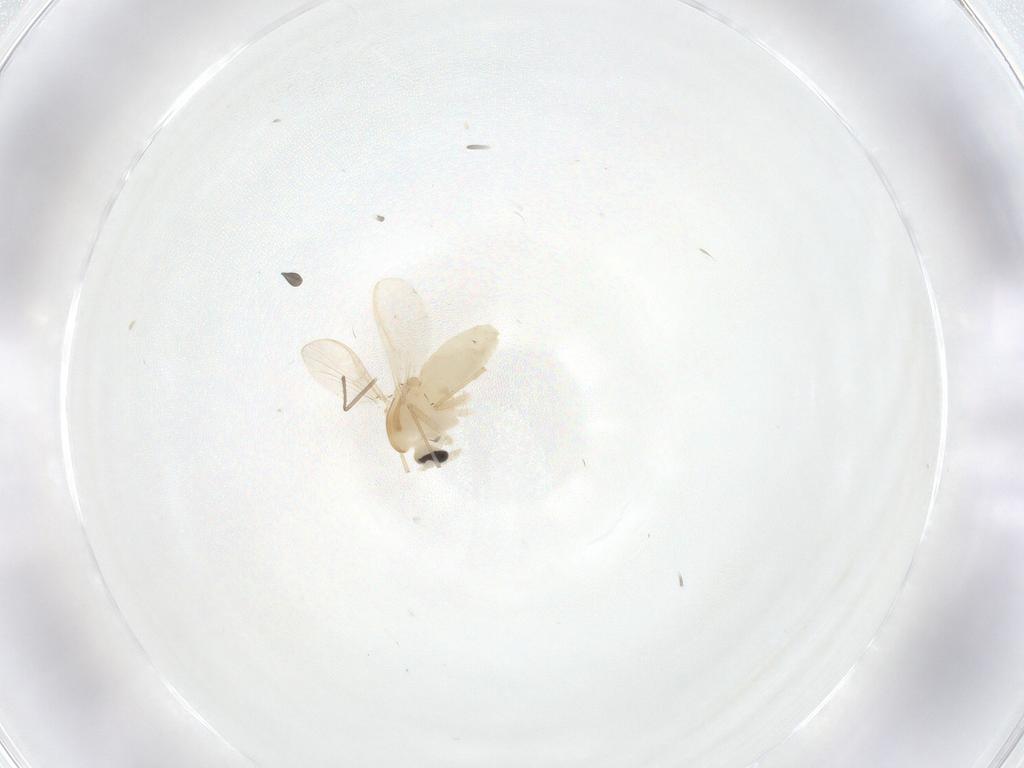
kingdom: Animalia
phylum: Arthropoda
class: Insecta
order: Diptera
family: Chironomidae
